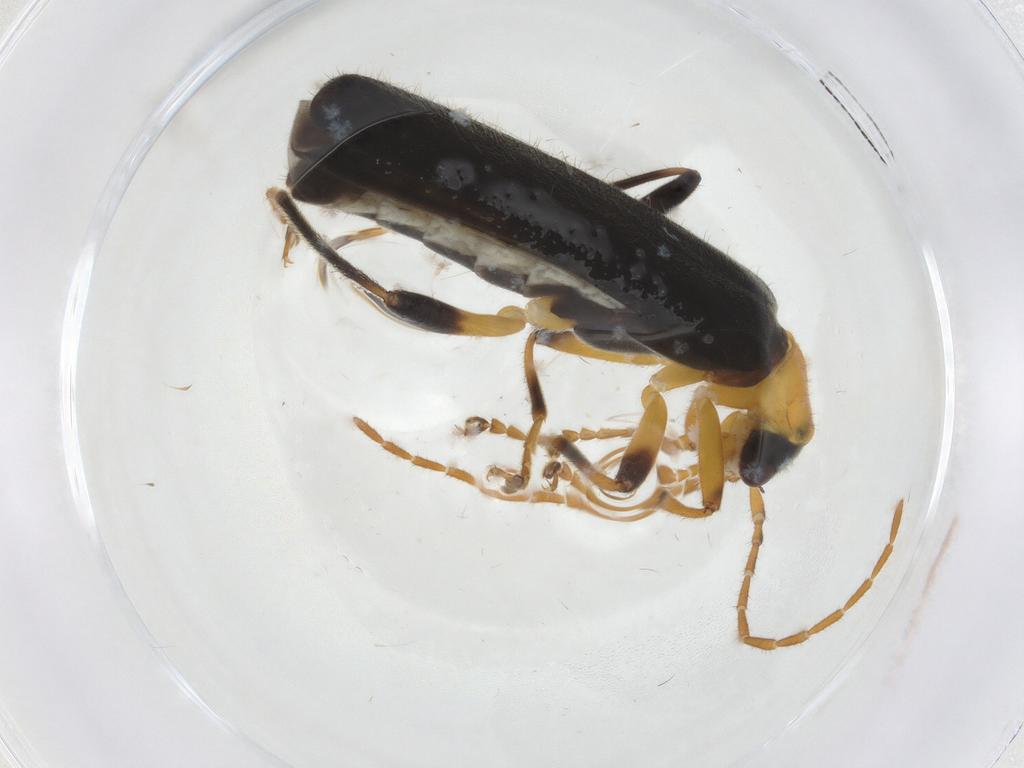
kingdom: Animalia
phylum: Arthropoda
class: Insecta
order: Coleoptera
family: Cantharidae
